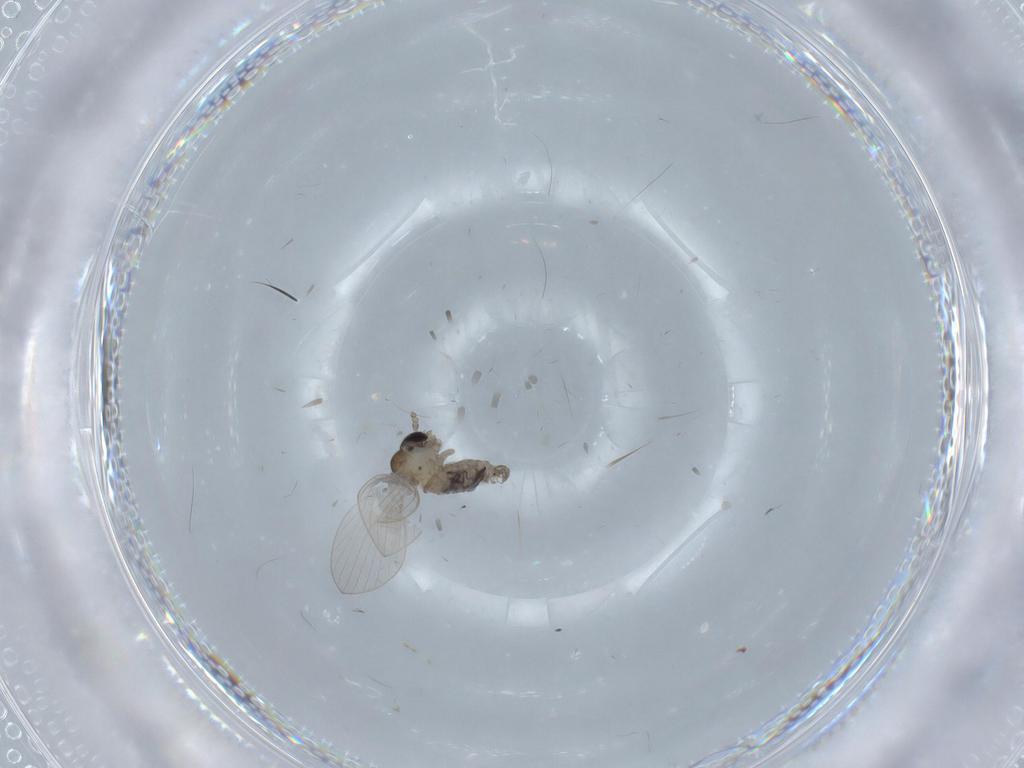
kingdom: Animalia
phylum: Arthropoda
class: Insecta
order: Diptera
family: Psychodidae
